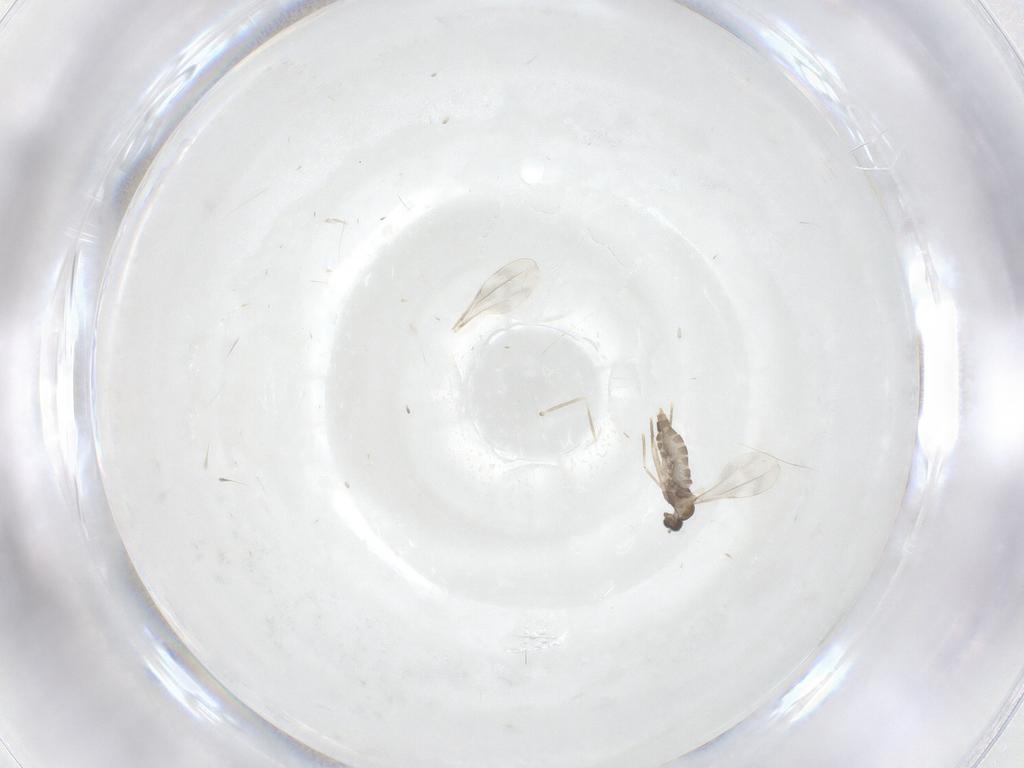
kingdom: Animalia
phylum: Arthropoda
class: Insecta
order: Diptera
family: Cecidomyiidae
